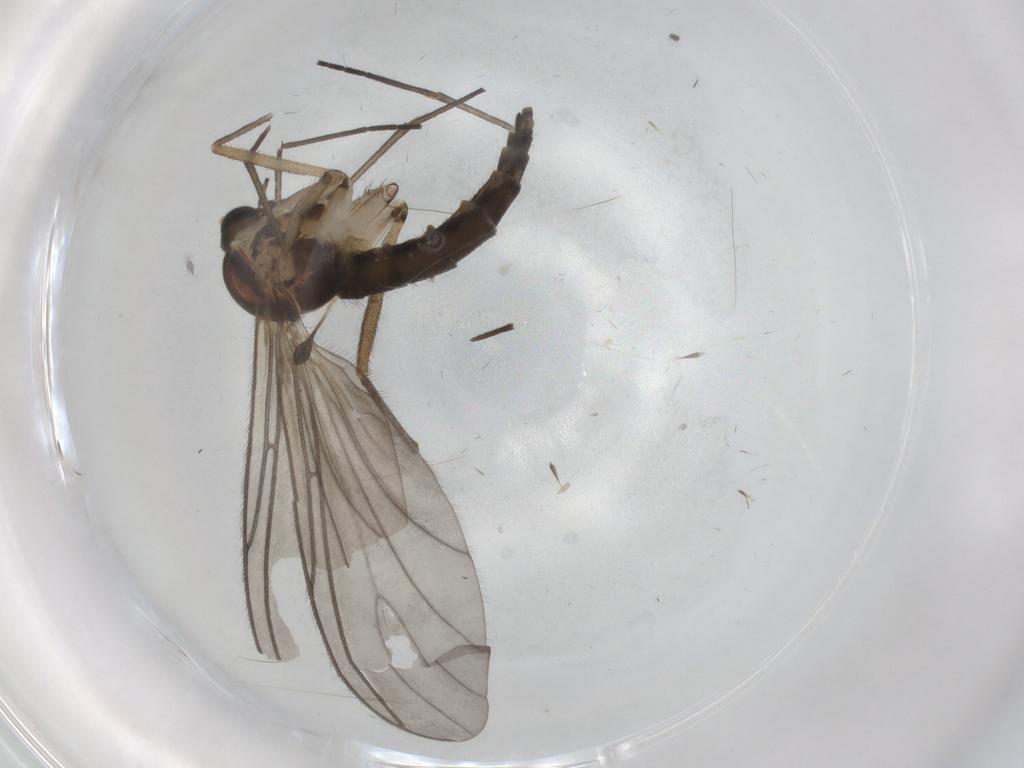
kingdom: Animalia
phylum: Arthropoda
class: Insecta
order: Diptera
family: Sciaridae
